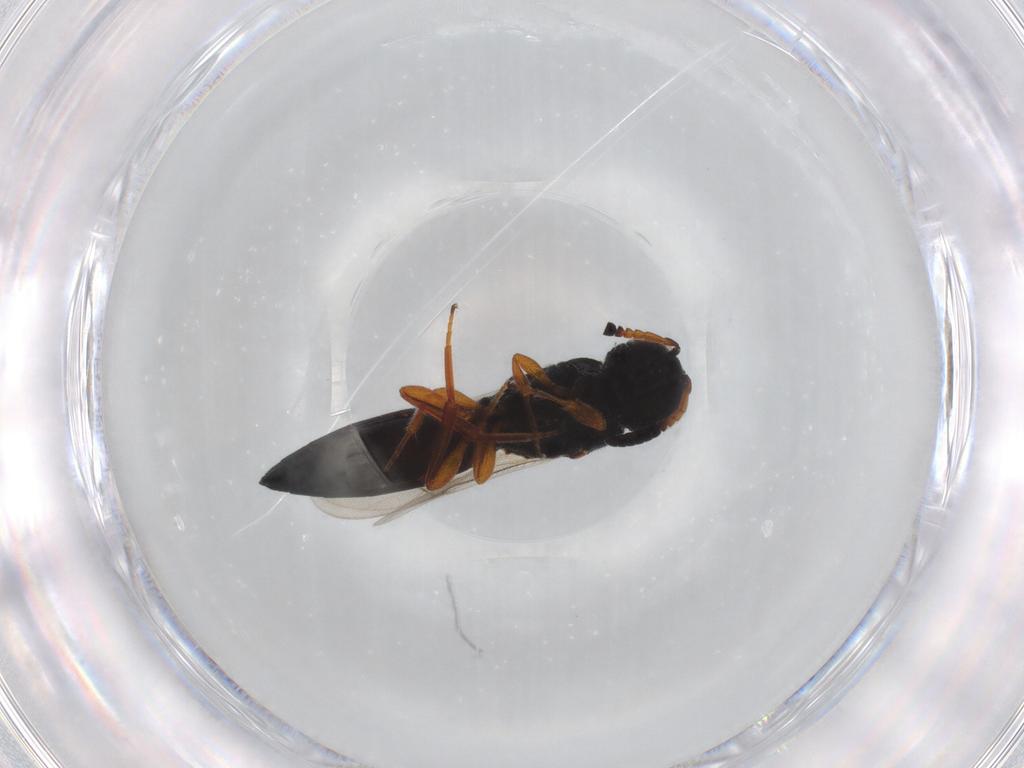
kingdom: Animalia
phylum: Arthropoda
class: Insecta
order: Hymenoptera
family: Scelionidae
